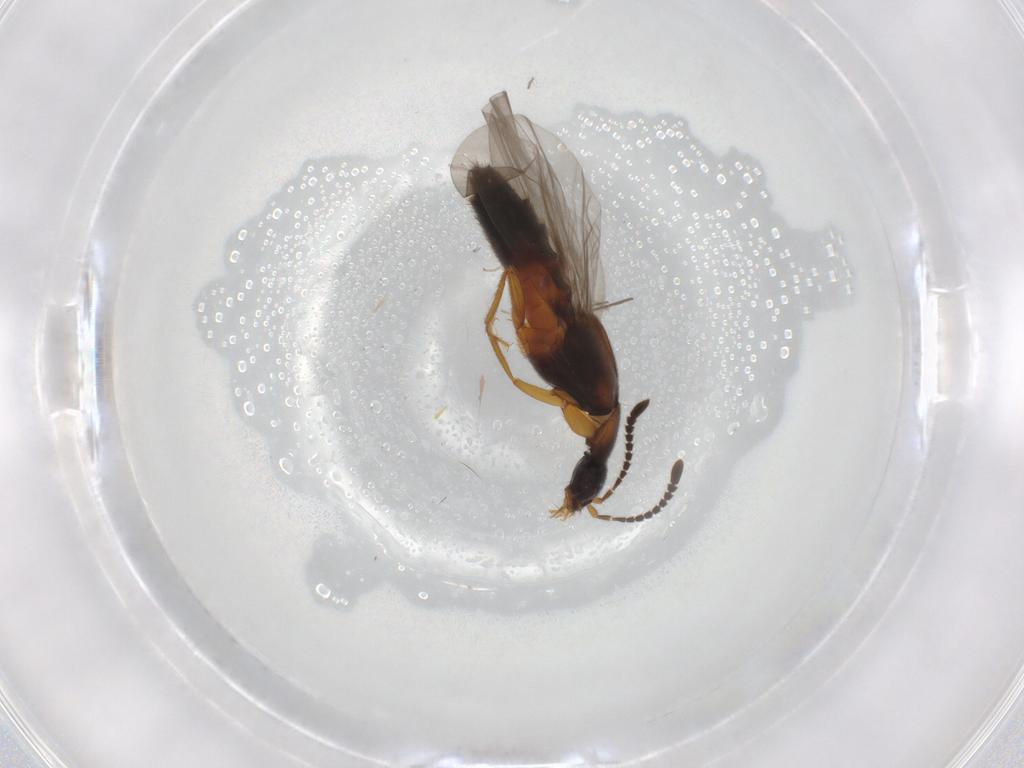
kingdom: Animalia
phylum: Arthropoda
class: Insecta
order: Coleoptera
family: Staphylinidae
